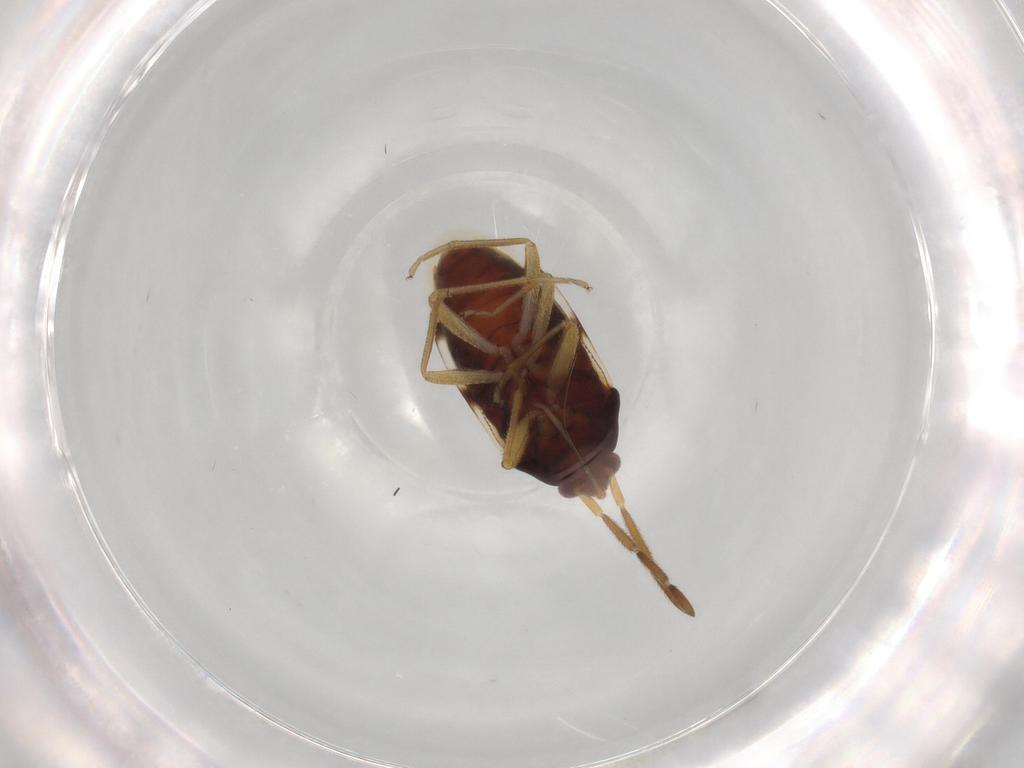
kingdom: Animalia
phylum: Arthropoda
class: Insecta
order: Hemiptera
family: Rhyparochromidae
